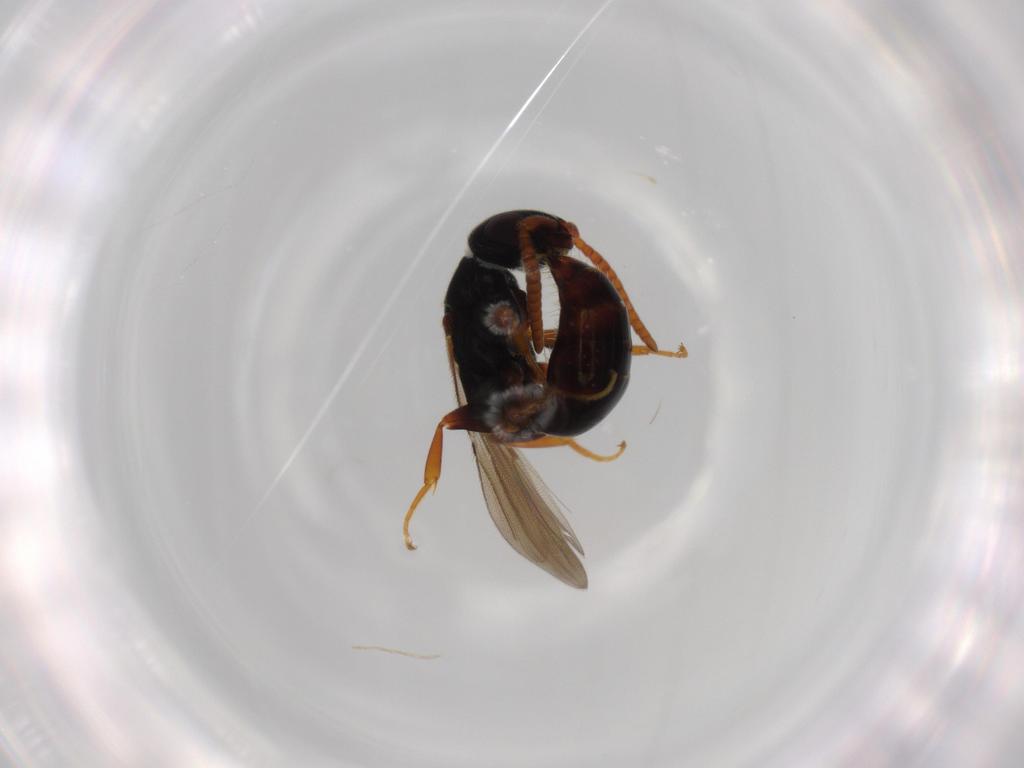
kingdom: Animalia
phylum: Arthropoda
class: Insecta
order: Hymenoptera
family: Bethylidae
